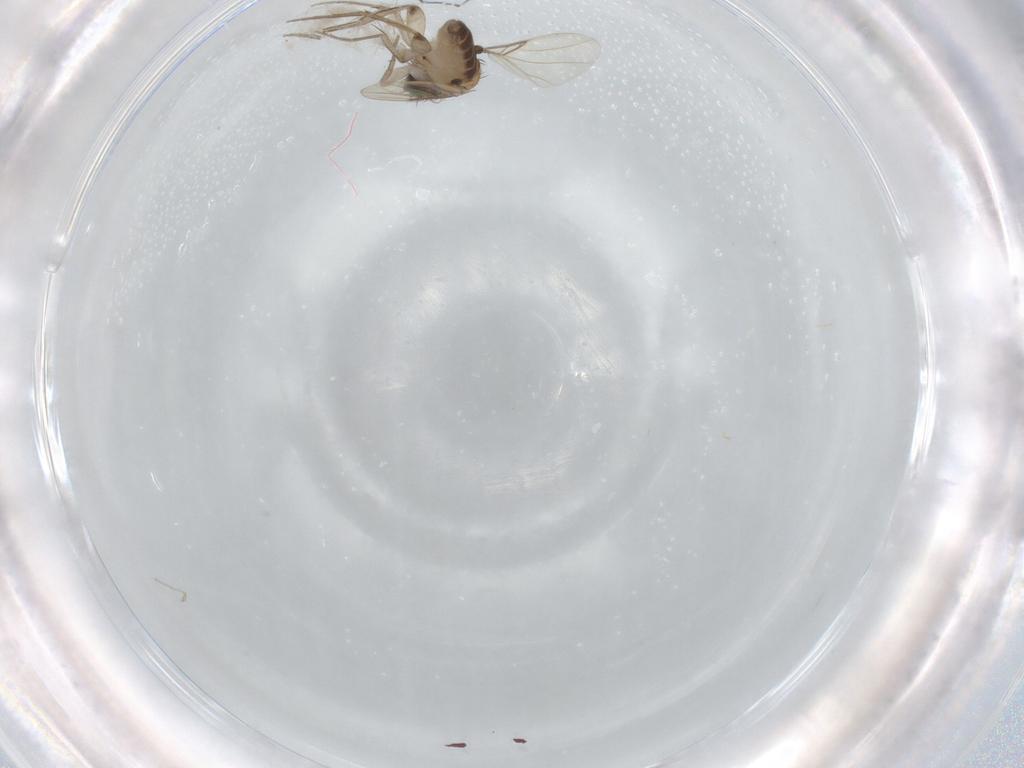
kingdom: Animalia
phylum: Arthropoda
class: Insecta
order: Diptera
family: Phoridae
